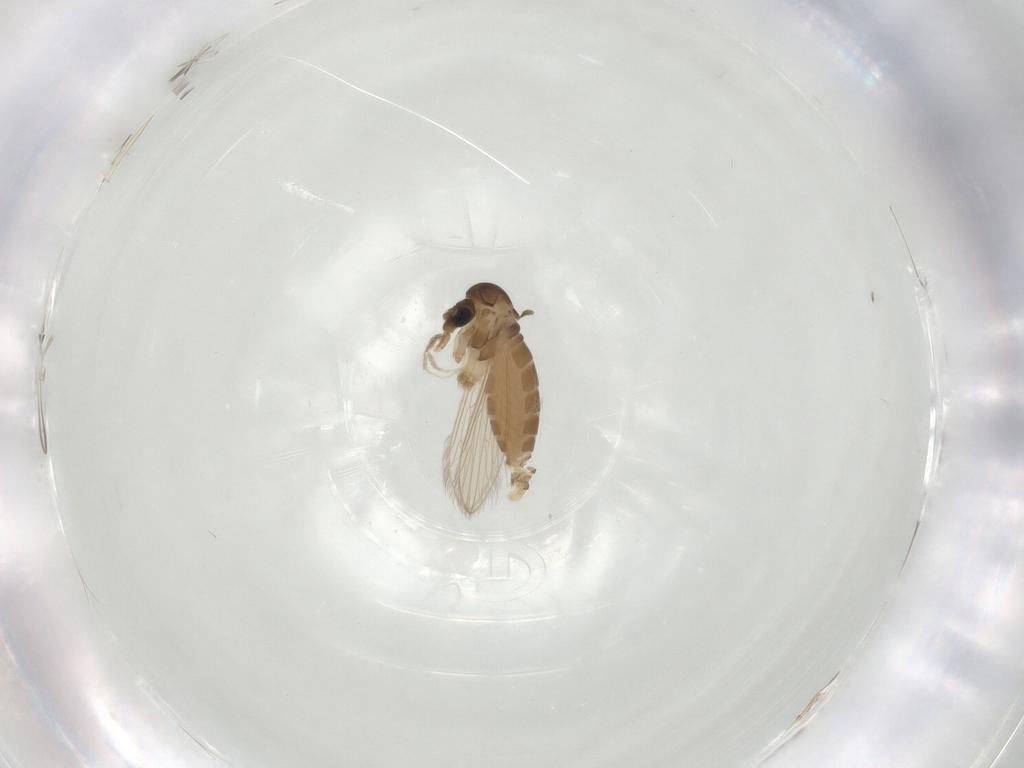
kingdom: Animalia
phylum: Arthropoda
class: Insecta
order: Diptera
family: Psychodidae
